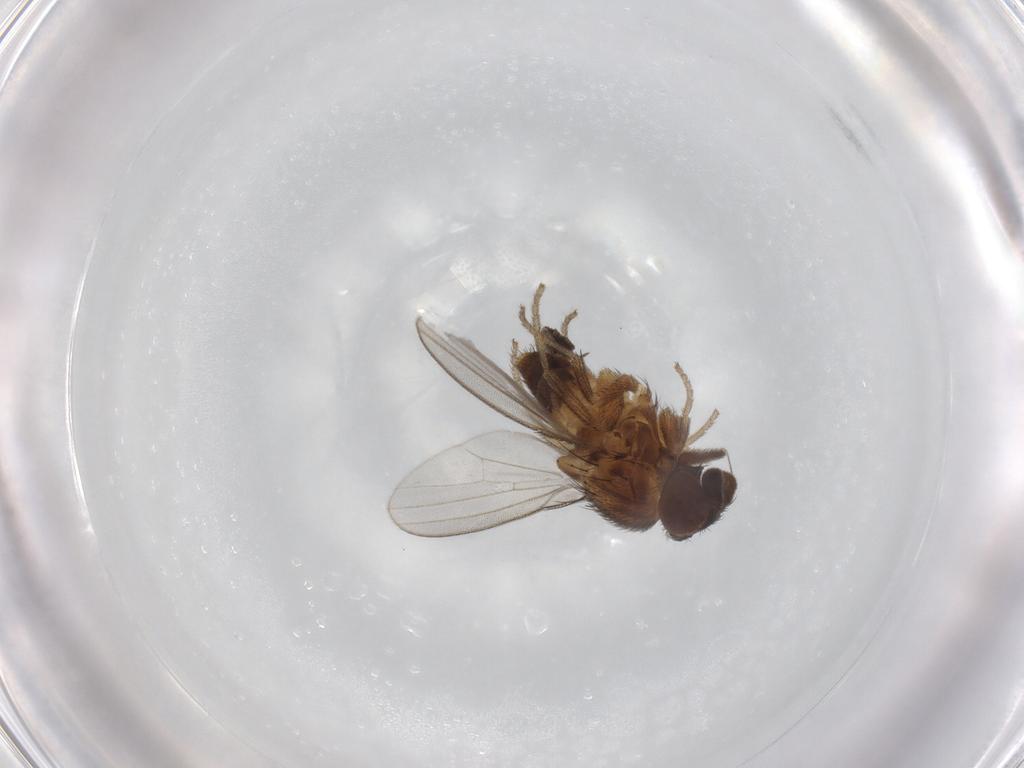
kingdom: Animalia
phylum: Arthropoda
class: Insecta
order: Diptera
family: Milichiidae
